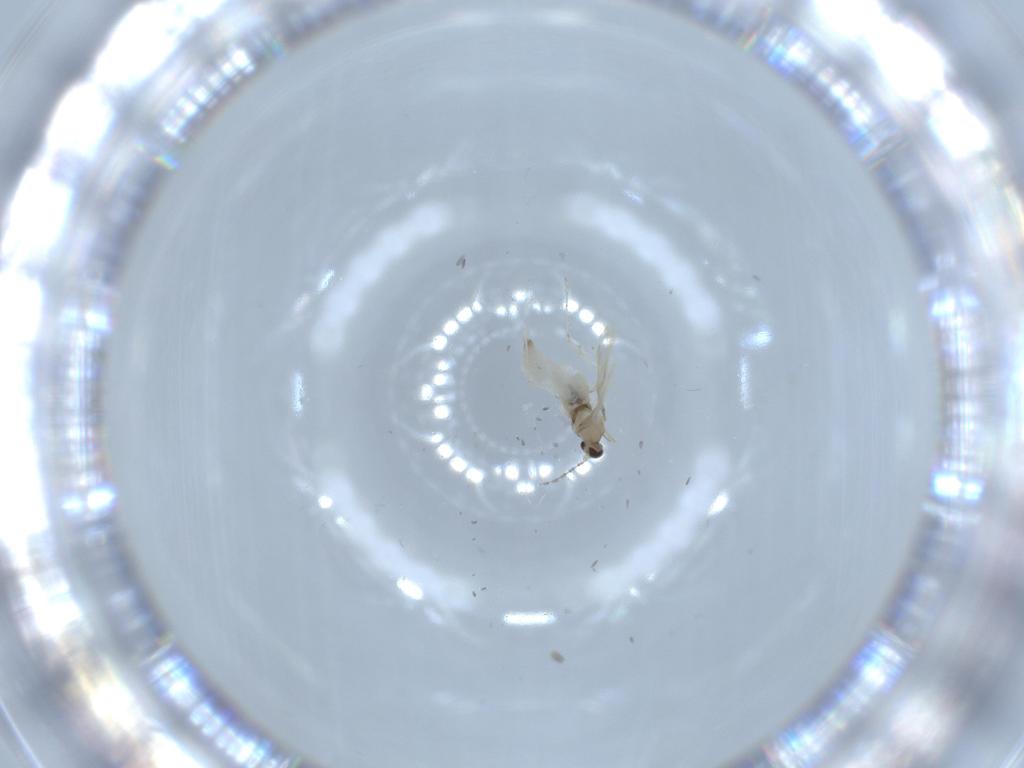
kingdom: Animalia
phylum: Arthropoda
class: Insecta
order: Diptera
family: Cecidomyiidae
